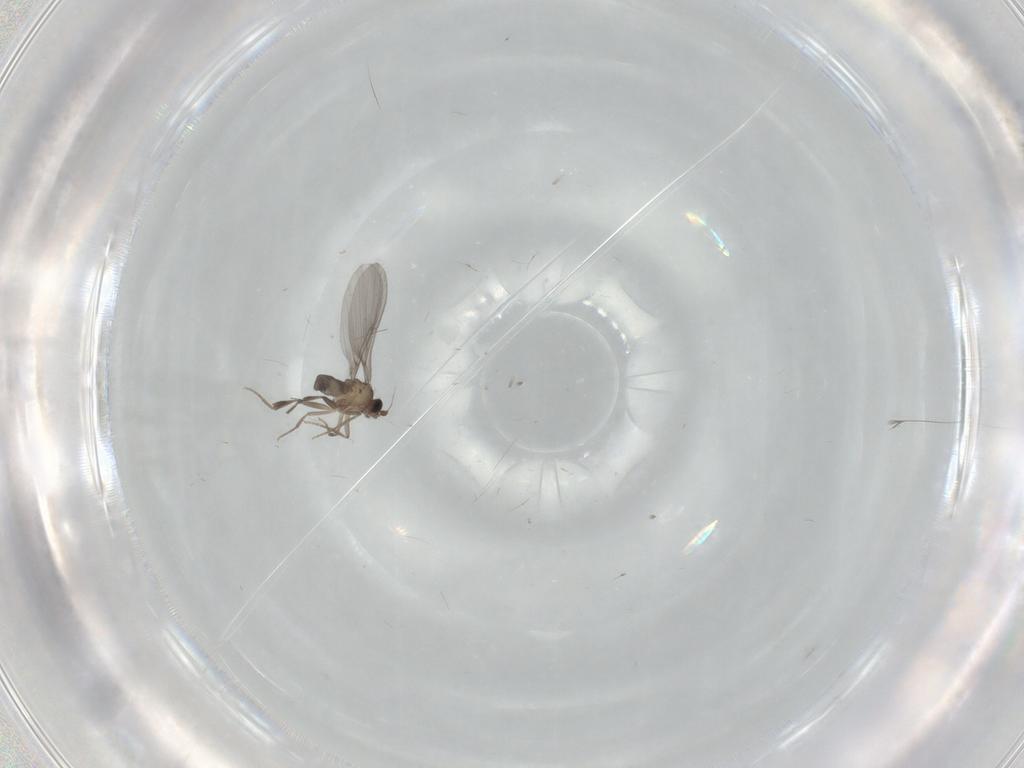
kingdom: Animalia
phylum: Arthropoda
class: Insecta
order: Diptera
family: Phoridae
